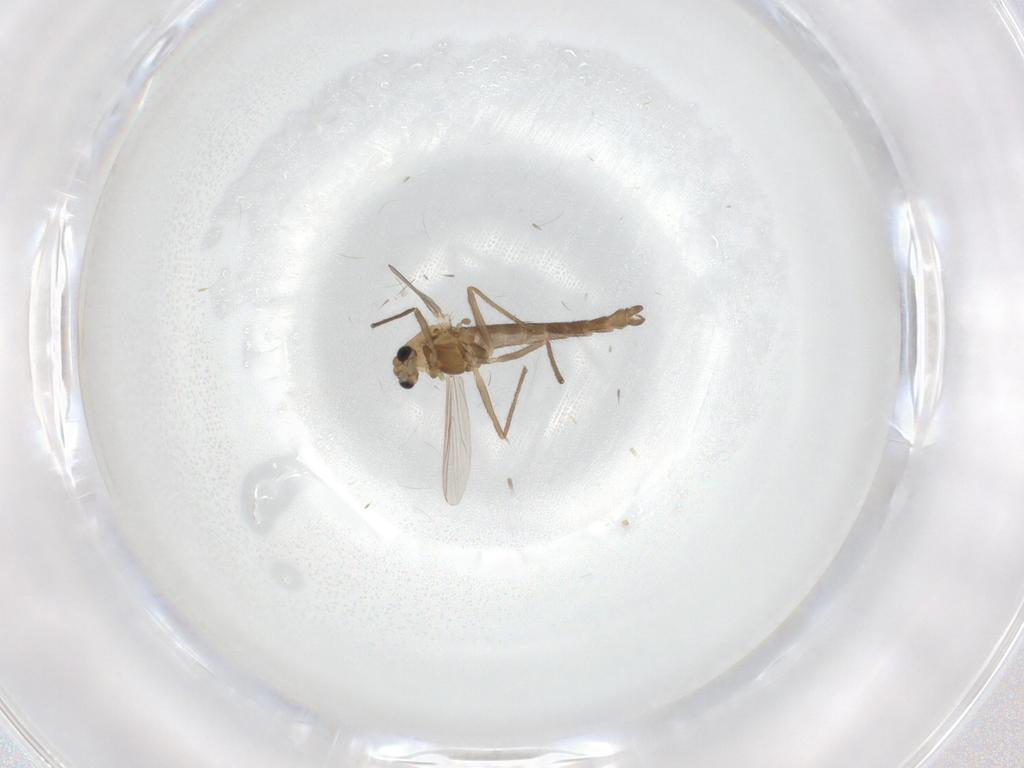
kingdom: Animalia
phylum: Arthropoda
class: Insecta
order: Diptera
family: Chironomidae
